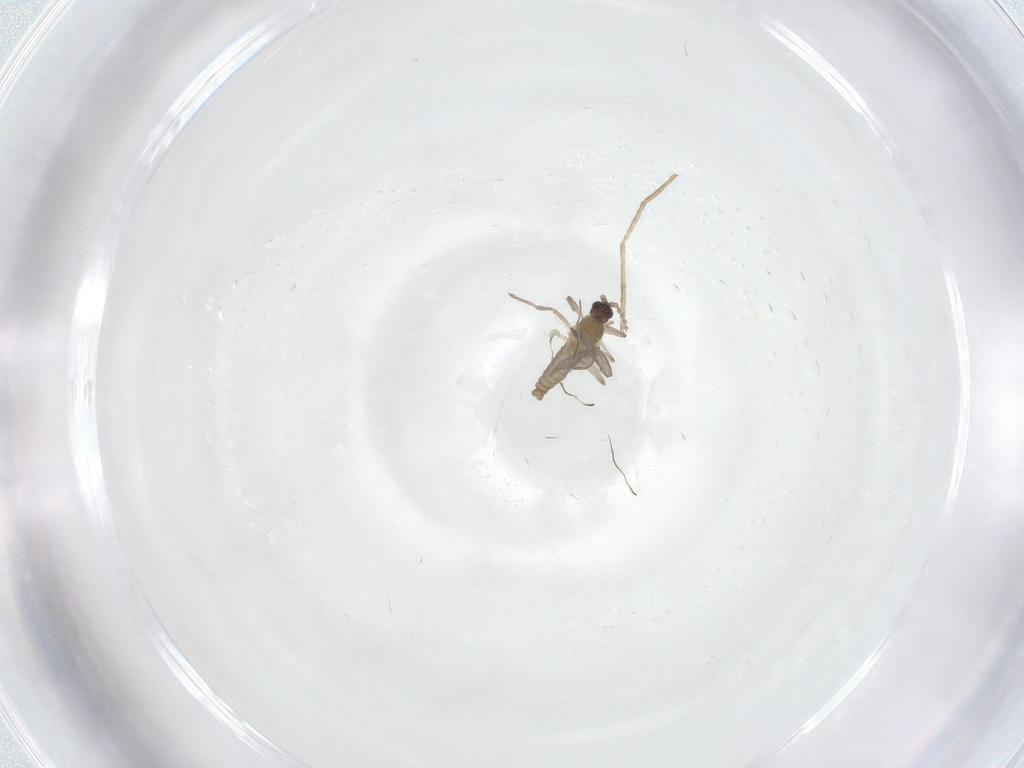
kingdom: Animalia
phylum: Arthropoda
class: Insecta
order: Diptera
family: Cecidomyiidae
